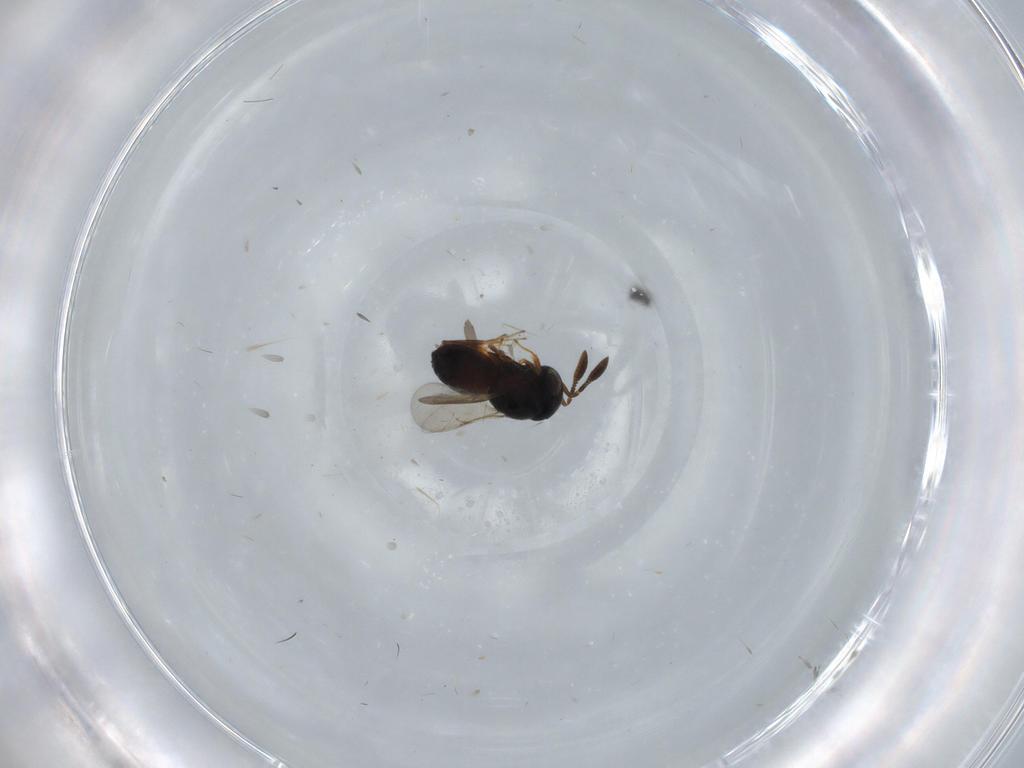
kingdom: Animalia
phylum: Arthropoda
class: Insecta
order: Hymenoptera
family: Scelionidae
